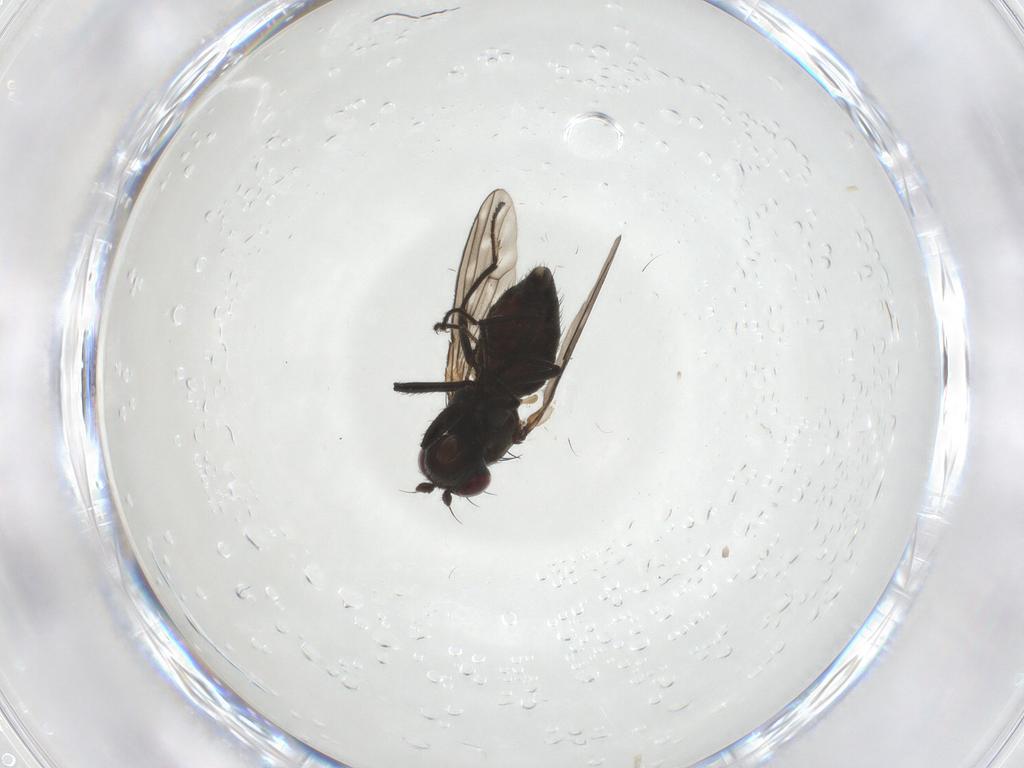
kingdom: Animalia
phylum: Arthropoda
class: Insecta
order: Diptera
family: Ephydridae
